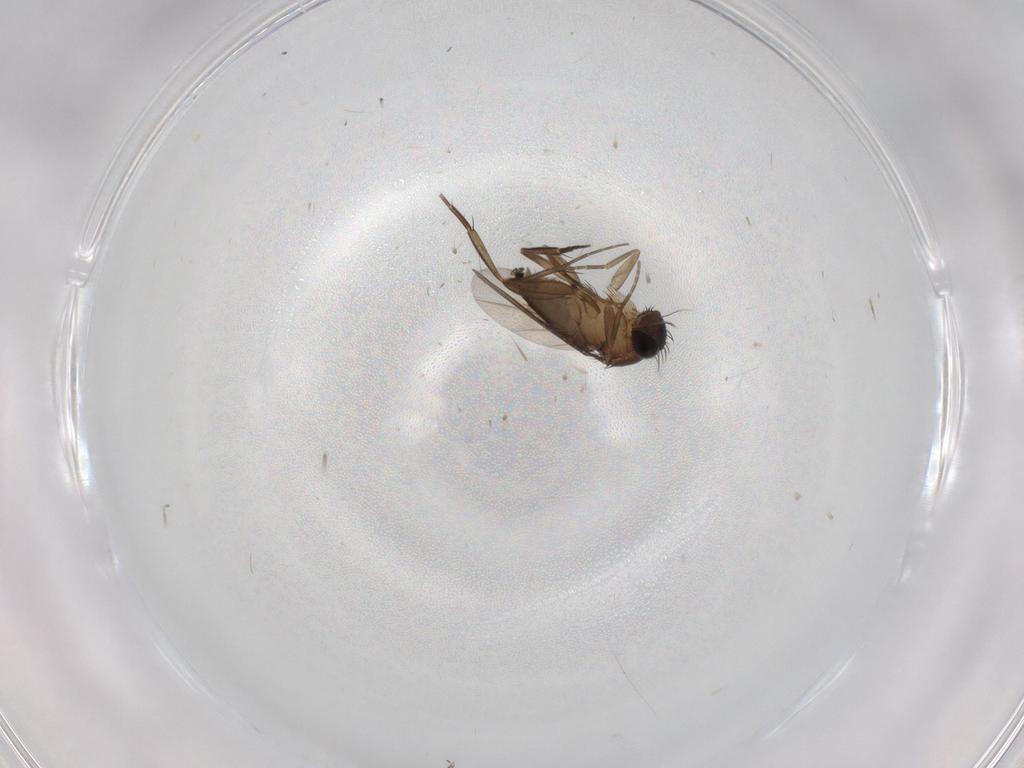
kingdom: Animalia
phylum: Arthropoda
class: Insecta
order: Diptera
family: Phoridae
